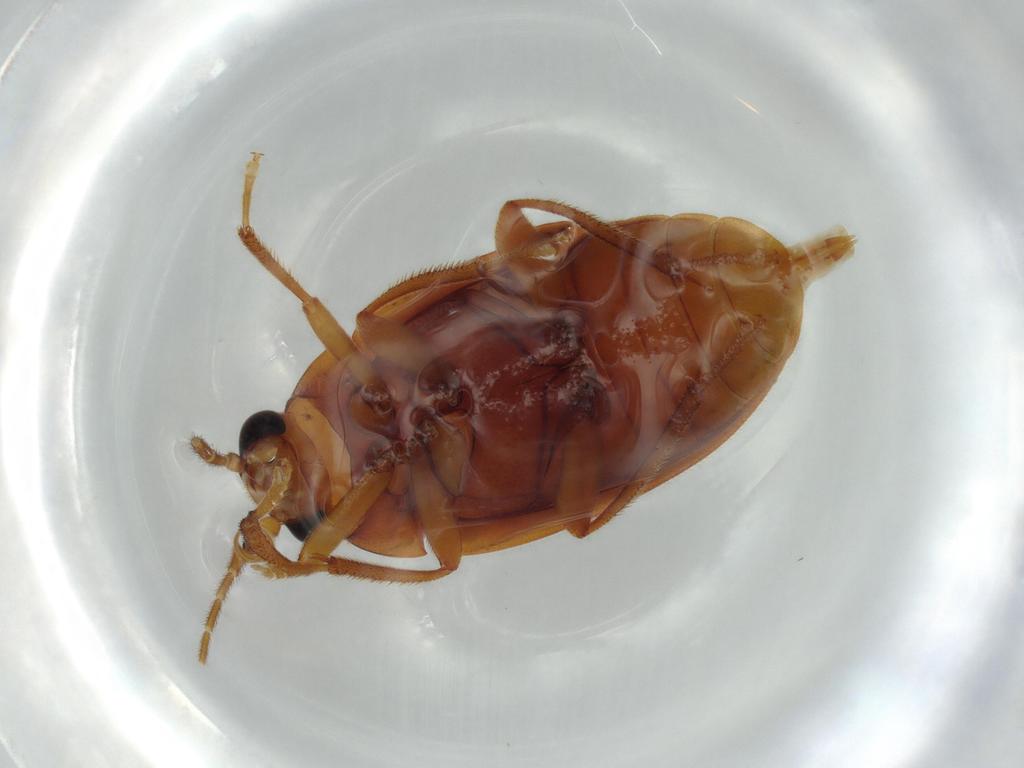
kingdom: Animalia
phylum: Arthropoda
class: Insecta
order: Coleoptera
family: Ptilodactylidae
